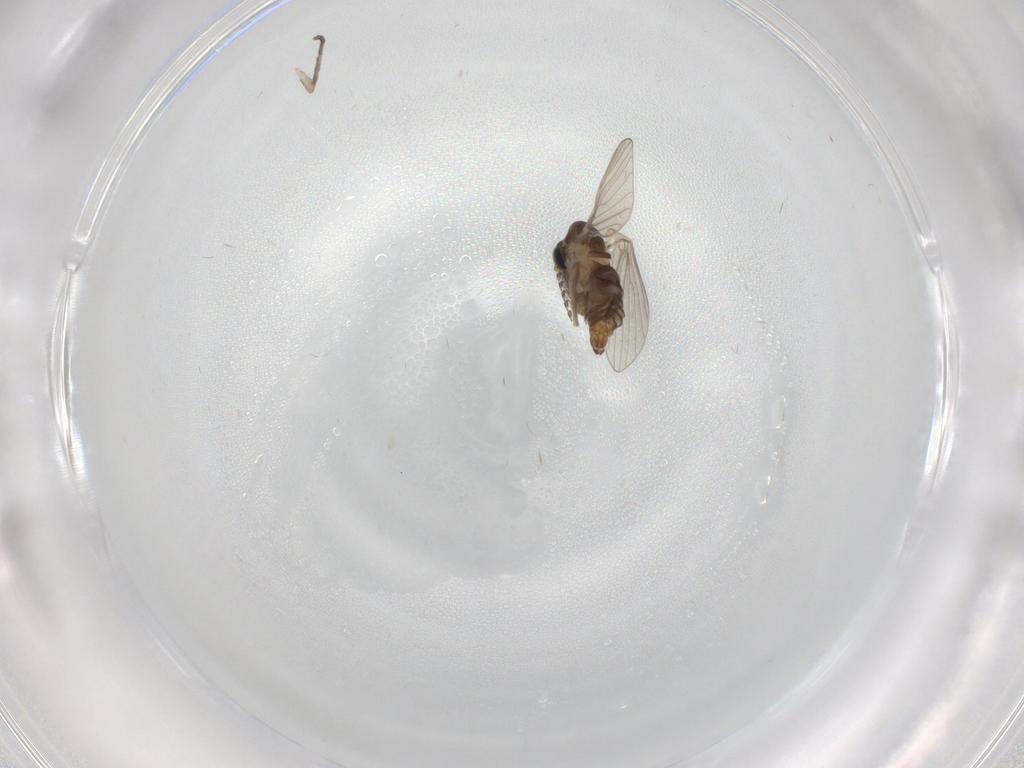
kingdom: Animalia
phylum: Arthropoda
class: Insecta
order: Diptera
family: Psychodidae
